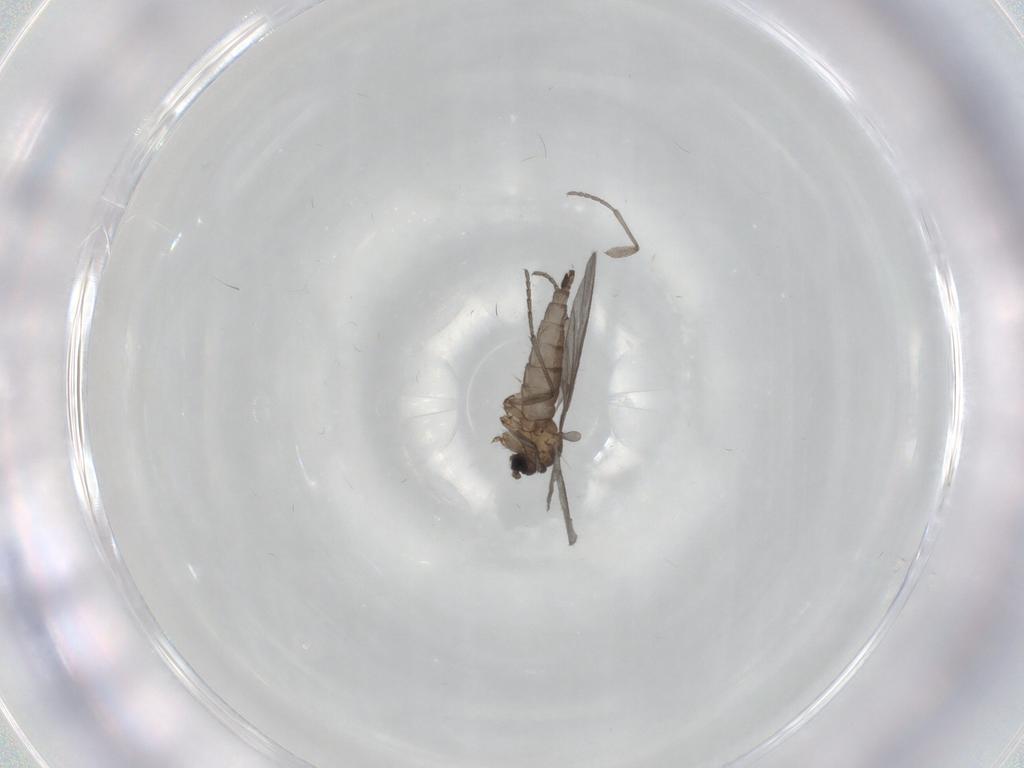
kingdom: Animalia
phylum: Arthropoda
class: Insecta
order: Diptera
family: Sciaridae
